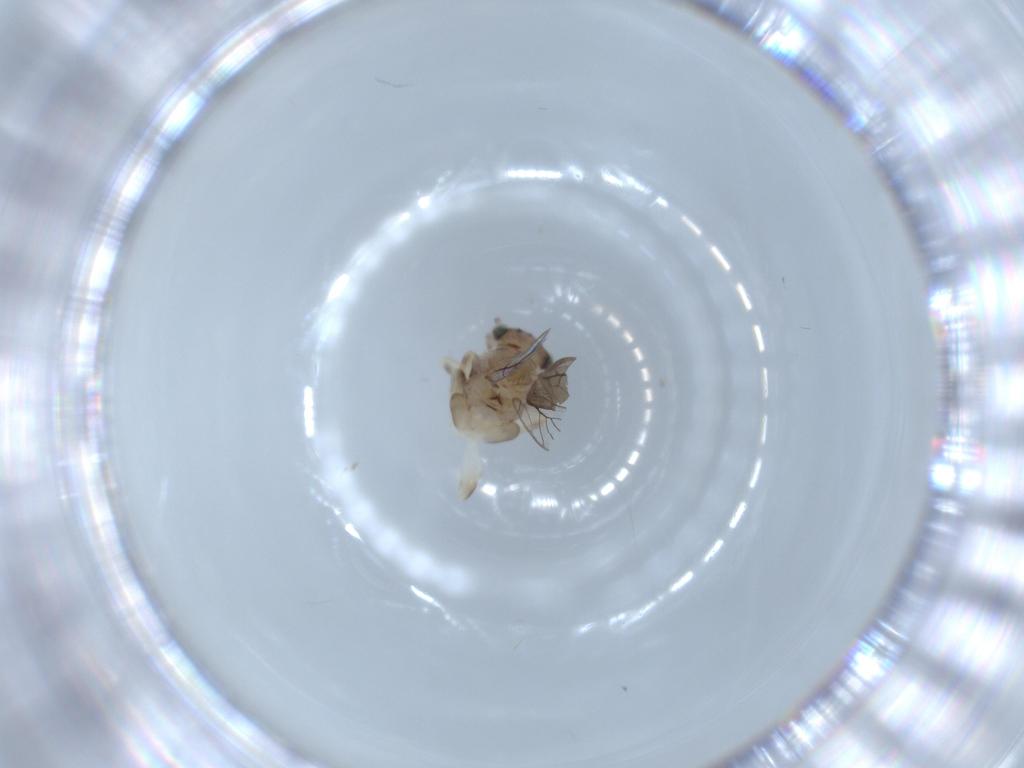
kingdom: Animalia
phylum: Arthropoda
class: Insecta
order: Psocodea
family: Lepidopsocidae
